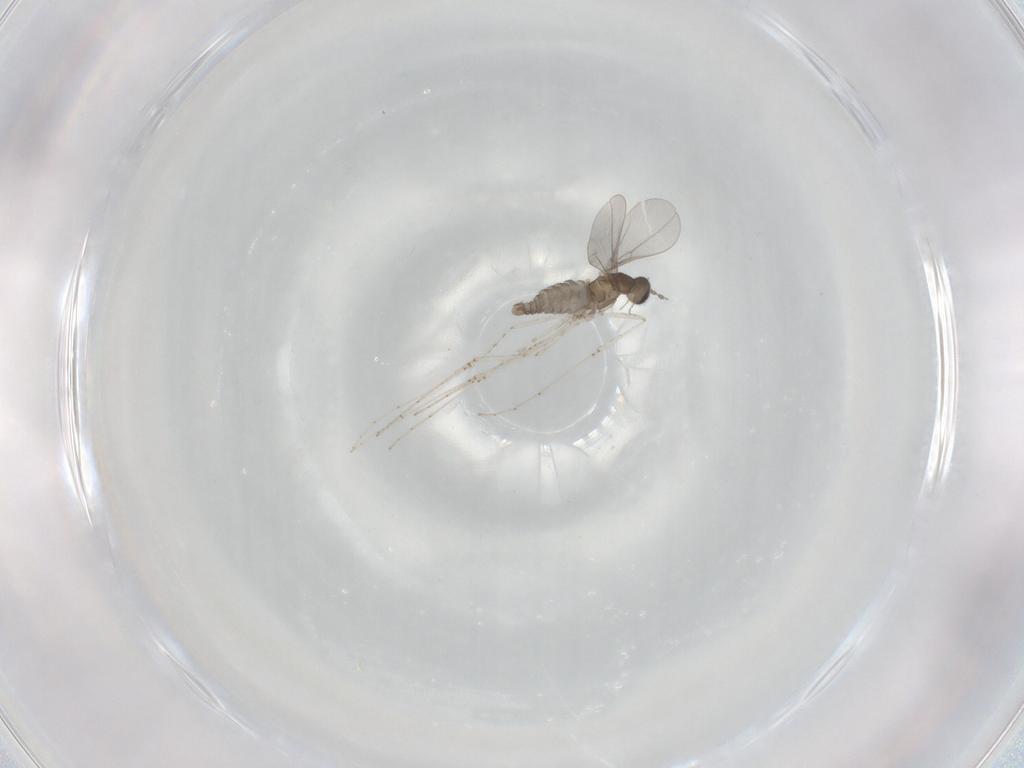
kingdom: Animalia
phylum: Arthropoda
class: Insecta
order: Diptera
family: Cecidomyiidae
